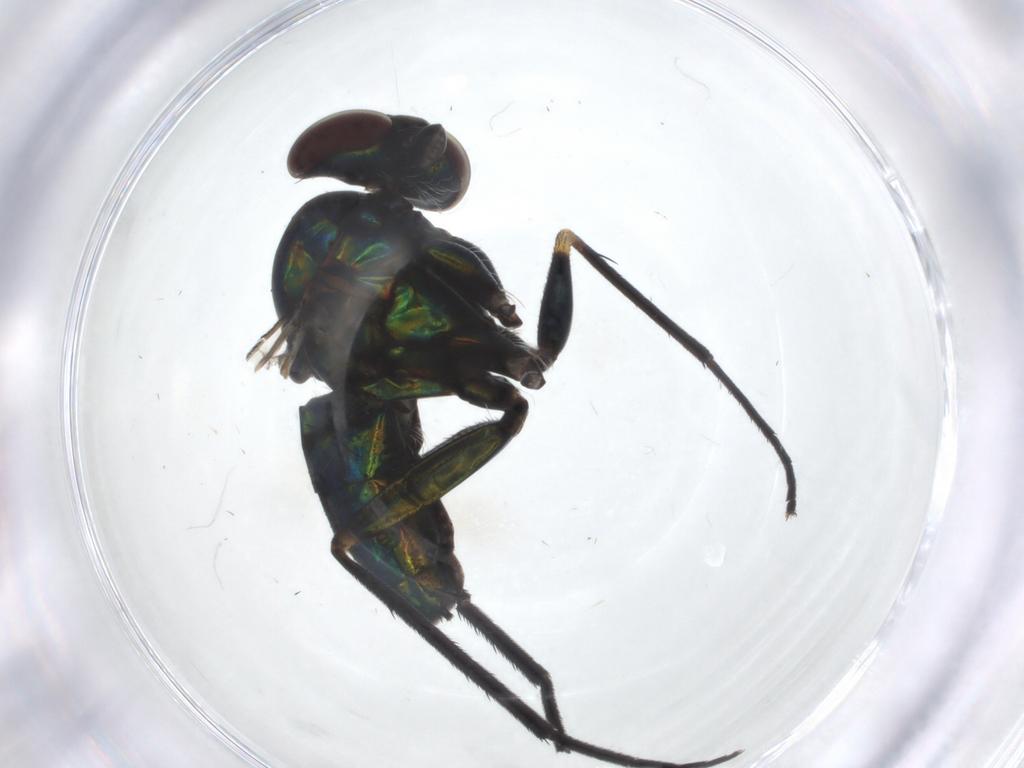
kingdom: Animalia
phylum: Arthropoda
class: Insecta
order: Diptera
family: Dolichopodidae
